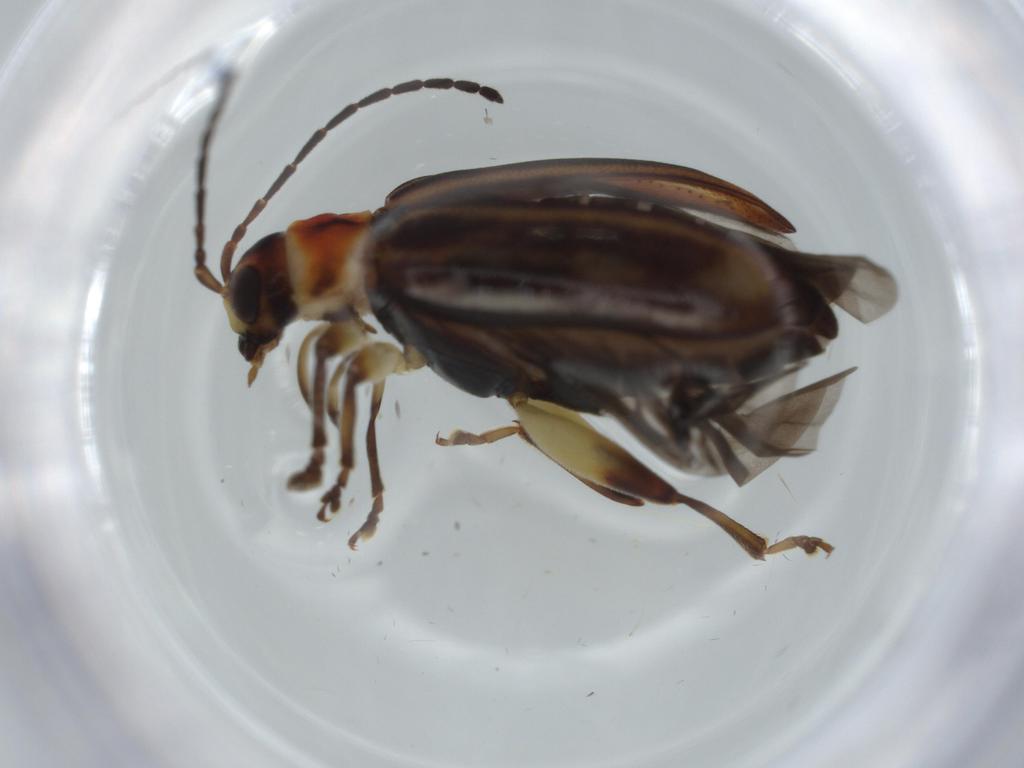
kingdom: Animalia
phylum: Arthropoda
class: Insecta
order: Coleoptera
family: Chrysomelidae
